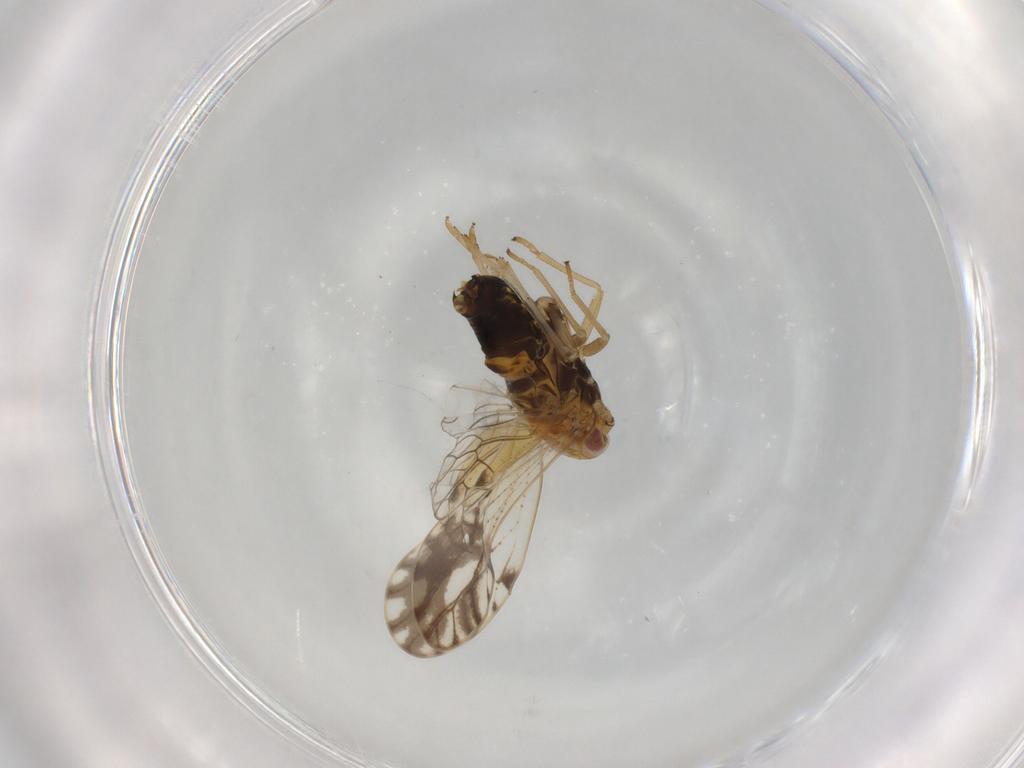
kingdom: Animalia
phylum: Arthropoda
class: Insecta
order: Hemiptera
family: Delphacidae
